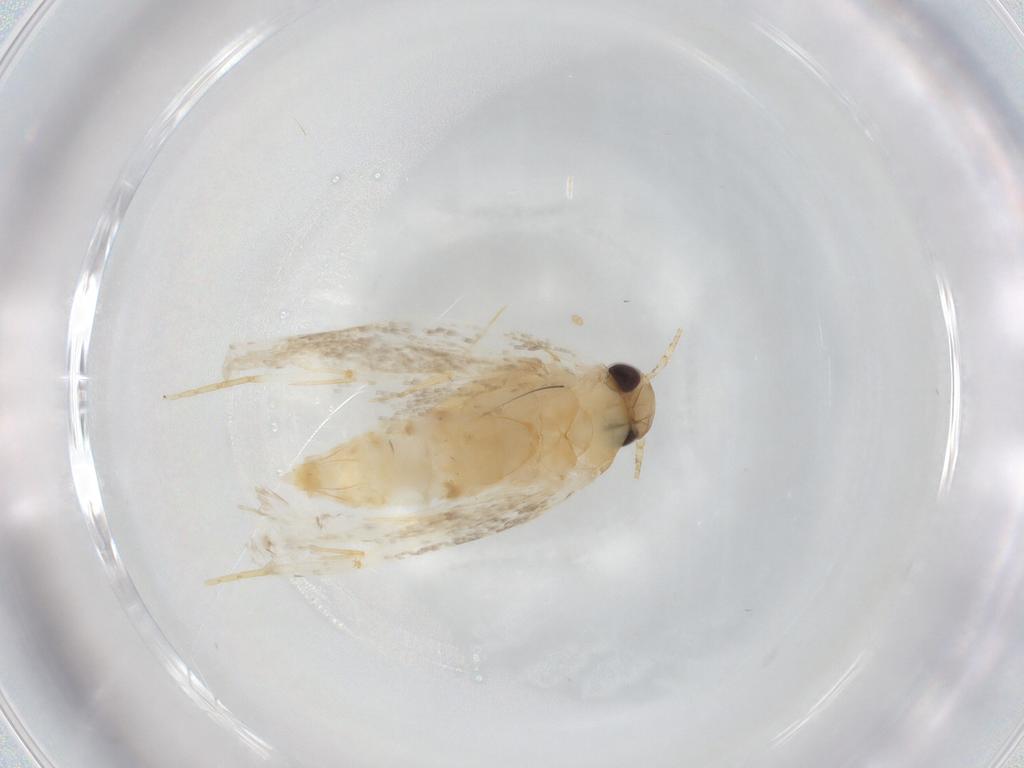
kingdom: Animalia
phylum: Arthropoda
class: Insecta
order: Lepidoptera
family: Autostichidae
